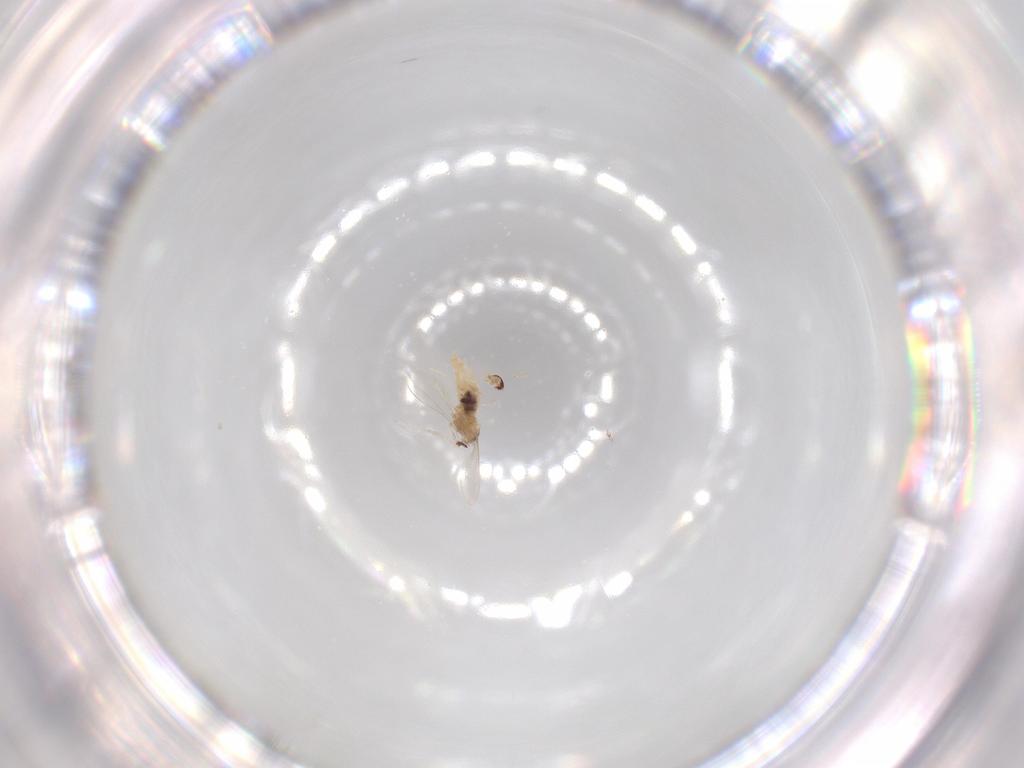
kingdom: Animalia
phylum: Arthropoda
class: Insecta
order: Diptera
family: Cecidomyiidae
